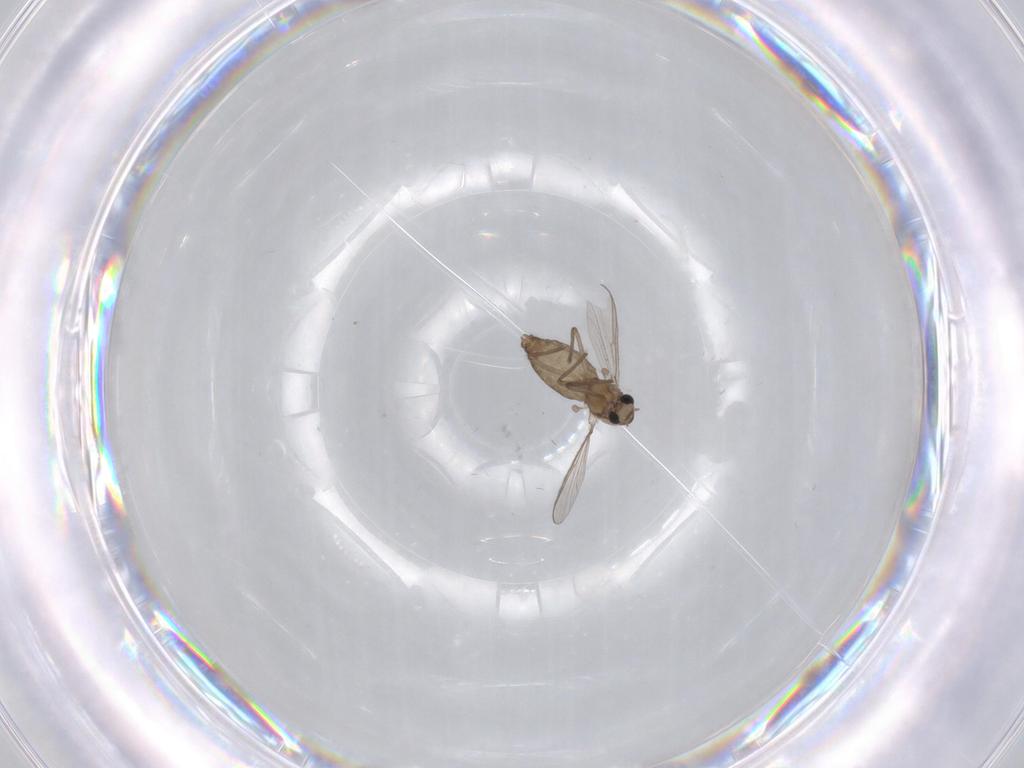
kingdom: Animalia
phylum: Arthropoda
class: Insecta
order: Diptera
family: Chironomidae
